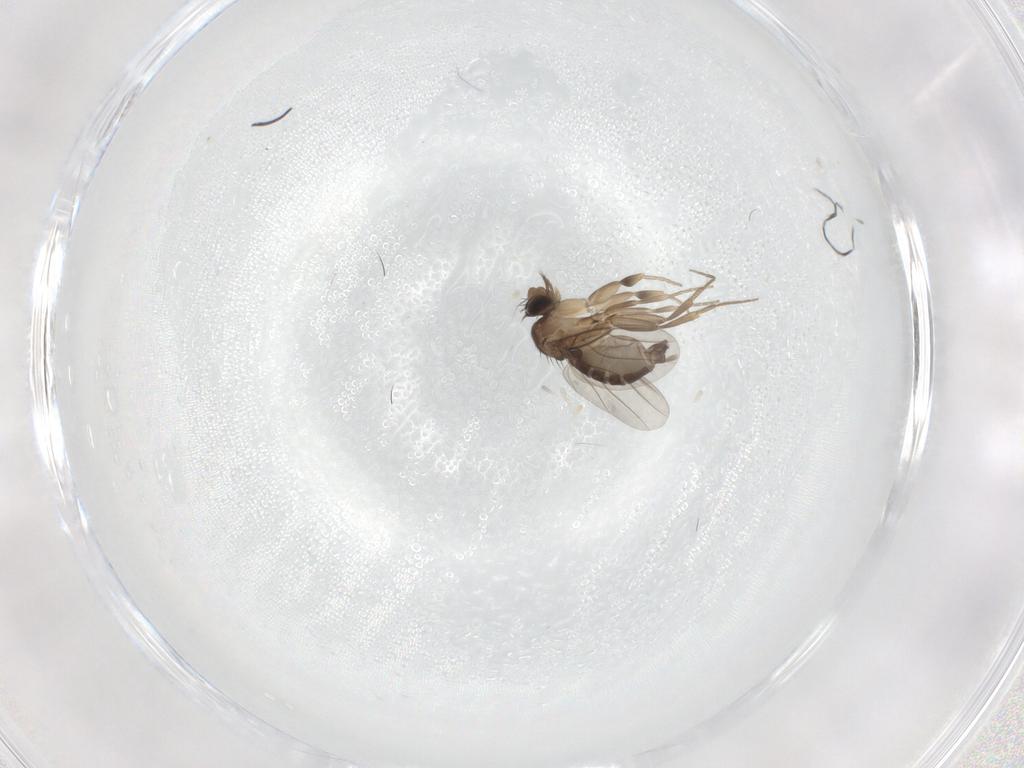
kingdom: Animalia
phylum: Arthropoda
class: Insecta
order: Diptera
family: Phoridae
